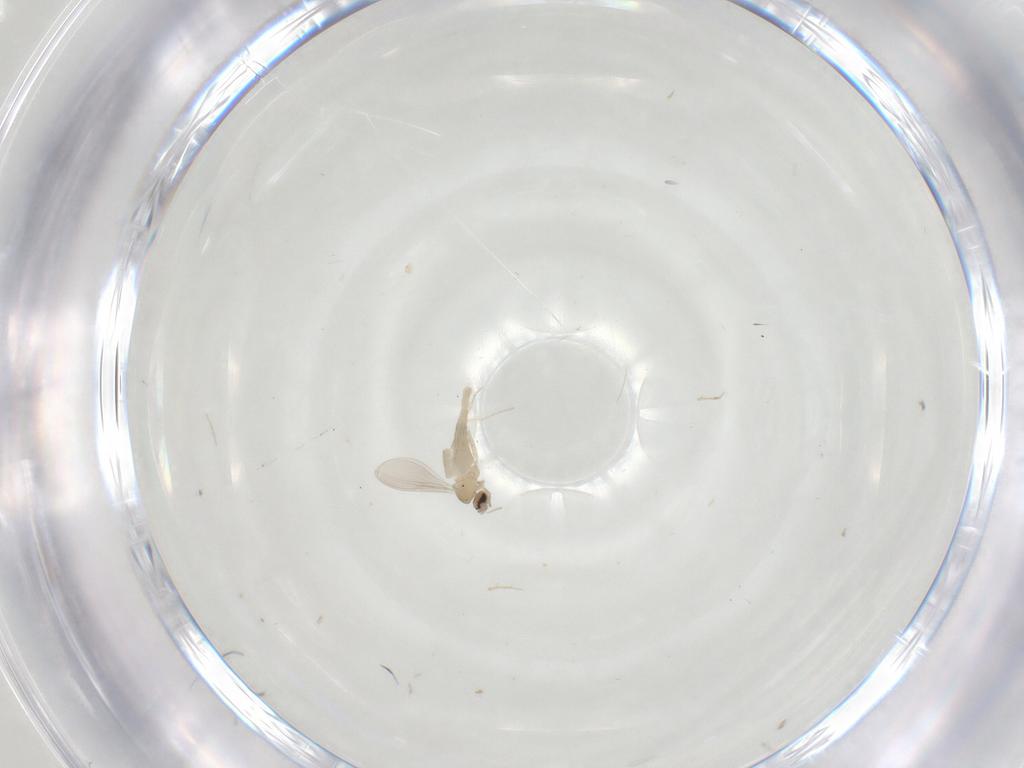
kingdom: Animalia
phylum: Arthropoda
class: Insecta
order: Diptera
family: Cecidomyiidae
